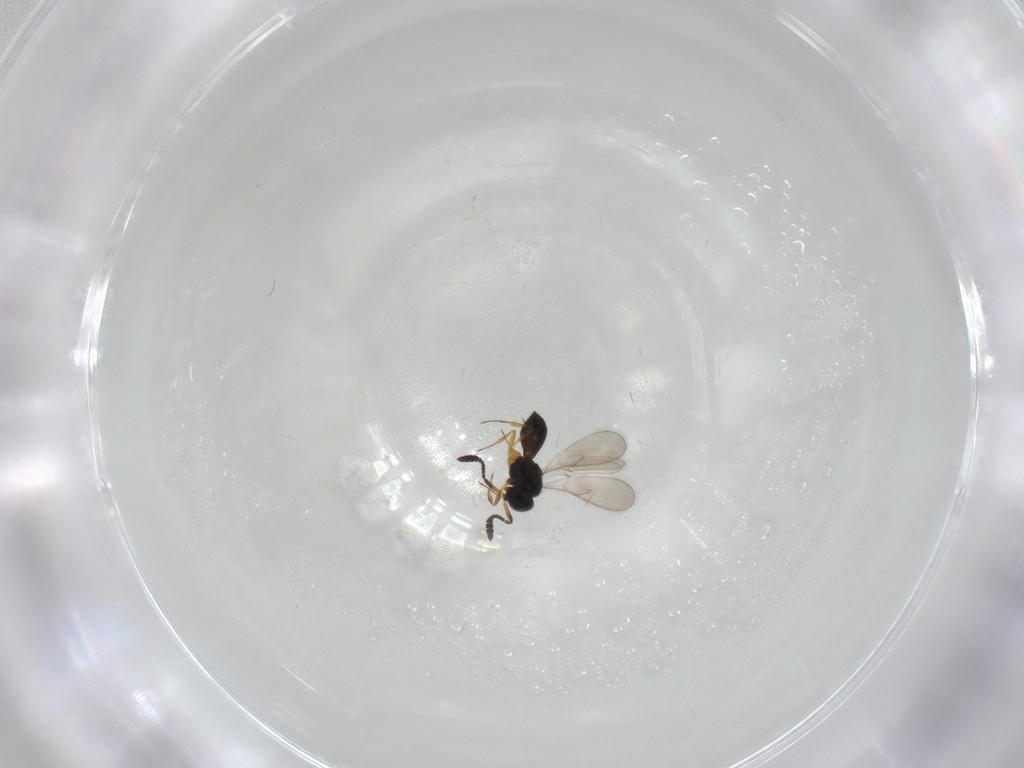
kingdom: Animalia
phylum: Arthropoda
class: Insecta
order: Hymenoptera
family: Scelionidae
